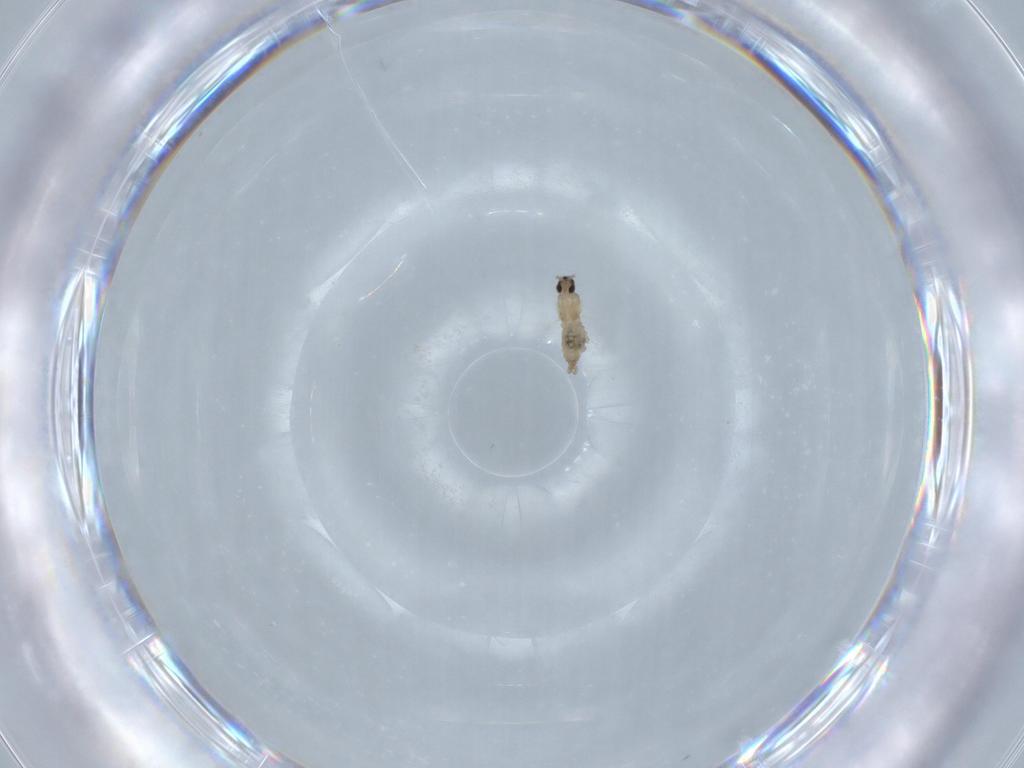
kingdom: Animalia
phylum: Arthropoda
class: Insecta
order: Diptera
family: Cecidomyiidae
